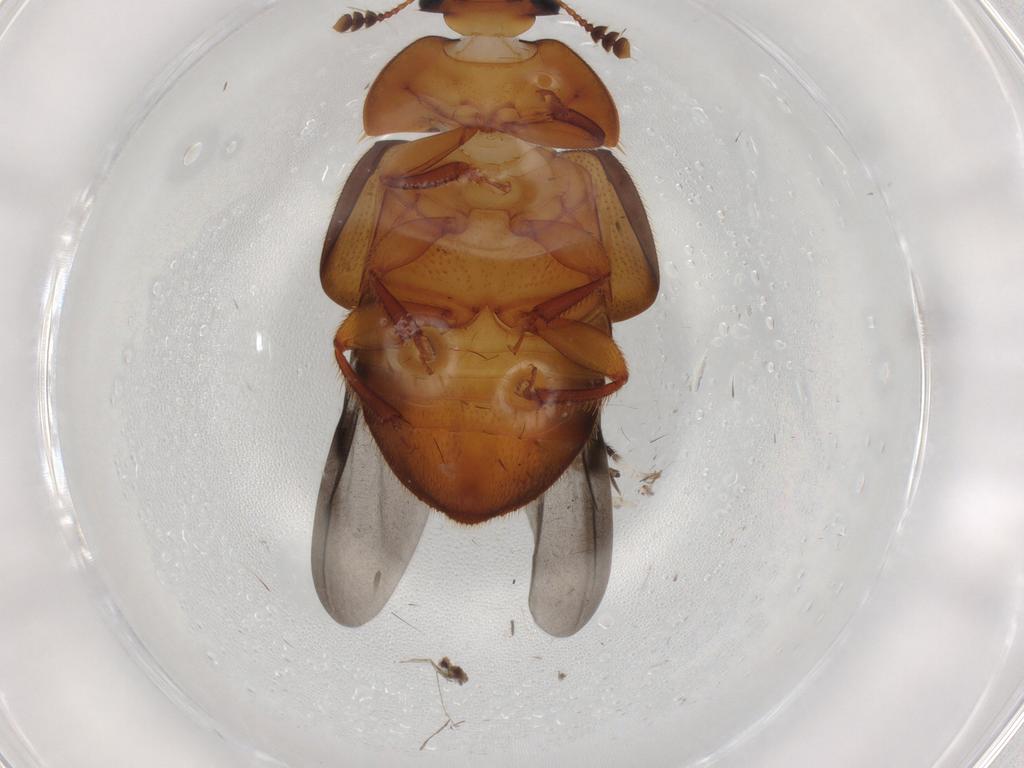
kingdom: Animalia
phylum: Arthropoda
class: Insecta
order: Coleoptera
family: Nitidulidae
